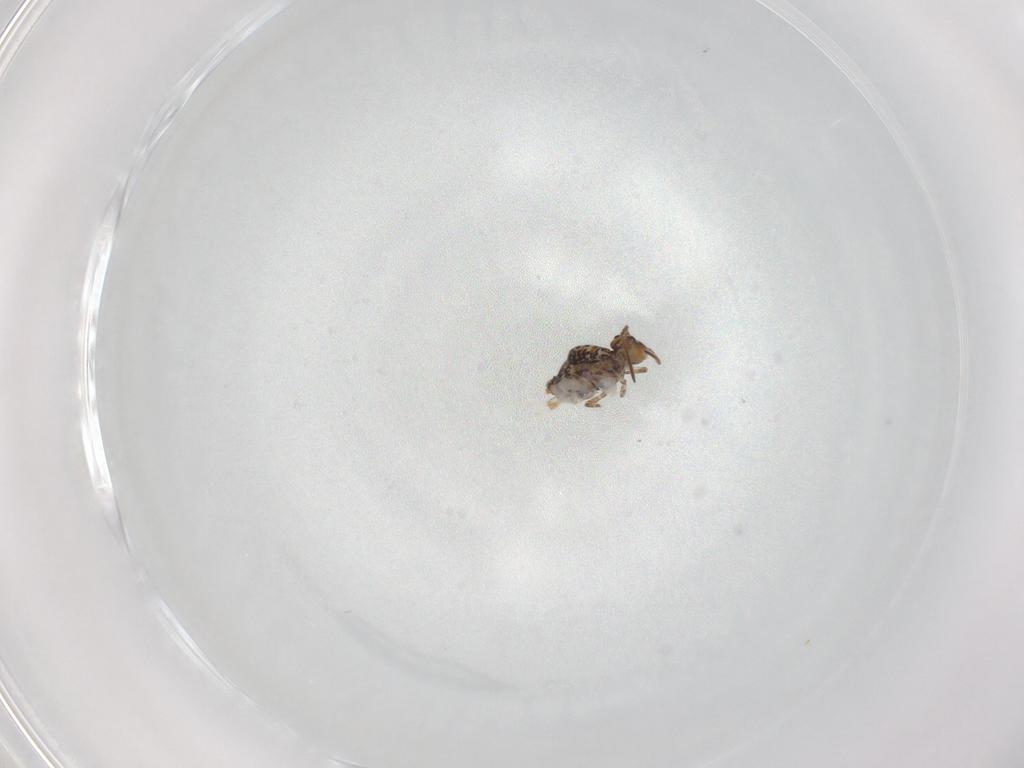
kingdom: Animalia
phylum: Arthropoda
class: Collembola
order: Symphypleona
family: Katiannidae
